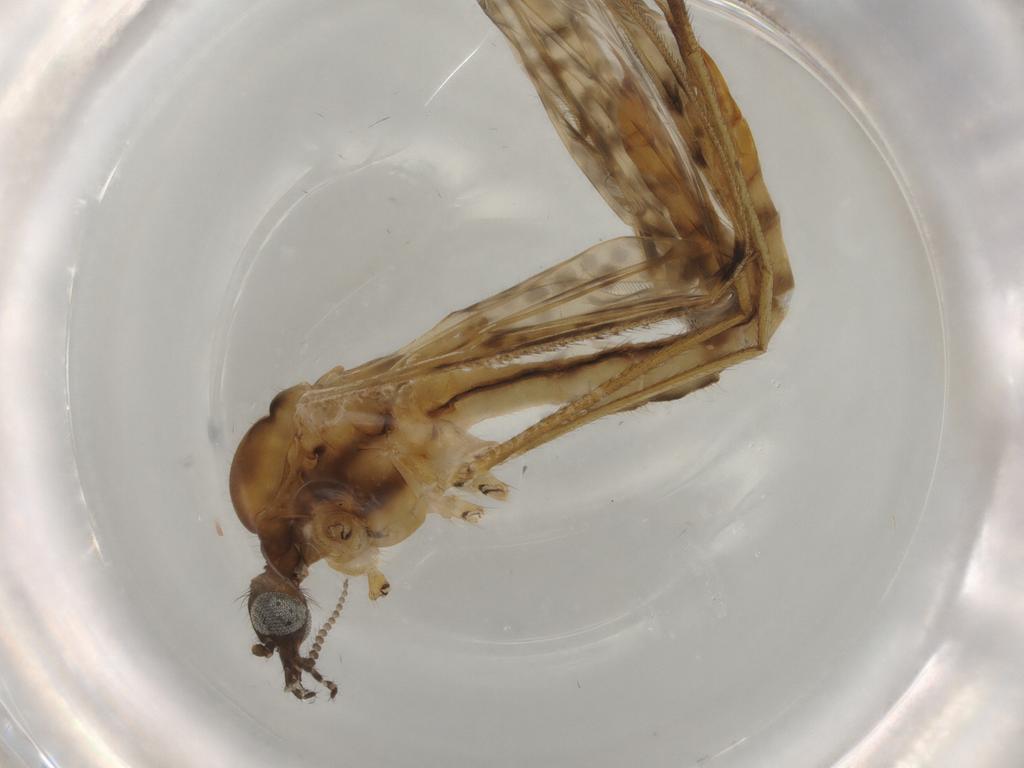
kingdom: Animalia
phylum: Arthropoda
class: Insecta
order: Diptera
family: Limoniidae
